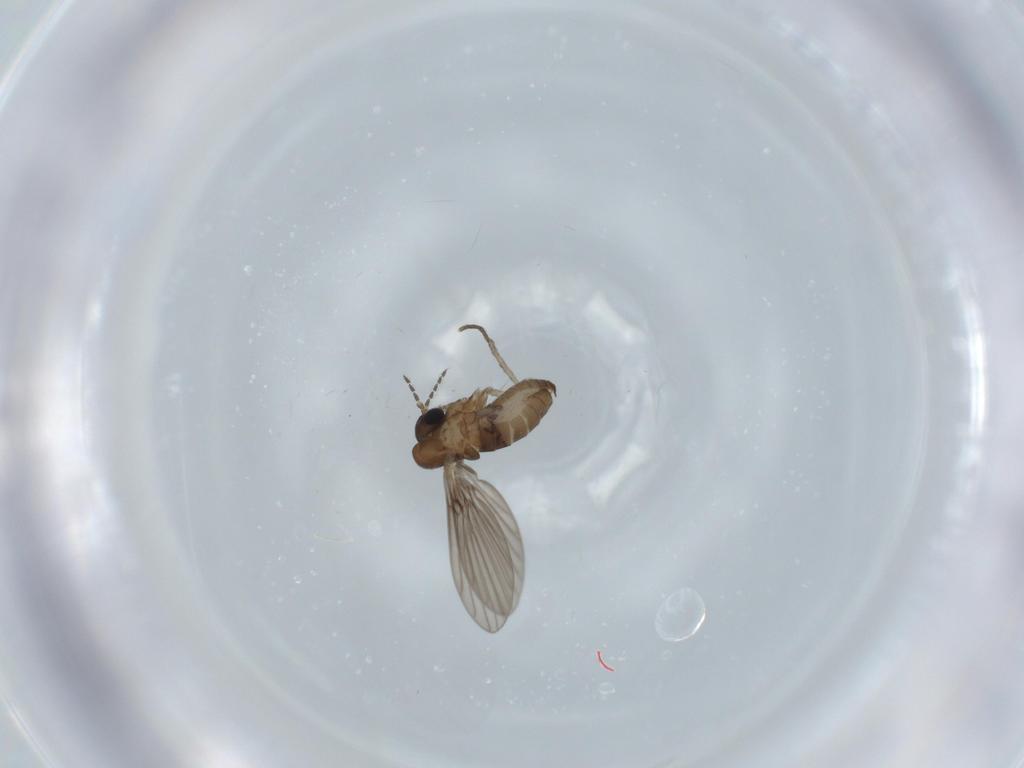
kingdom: Animalia
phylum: Arthropoda
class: Insecta
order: Diptera
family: Psychodidae
